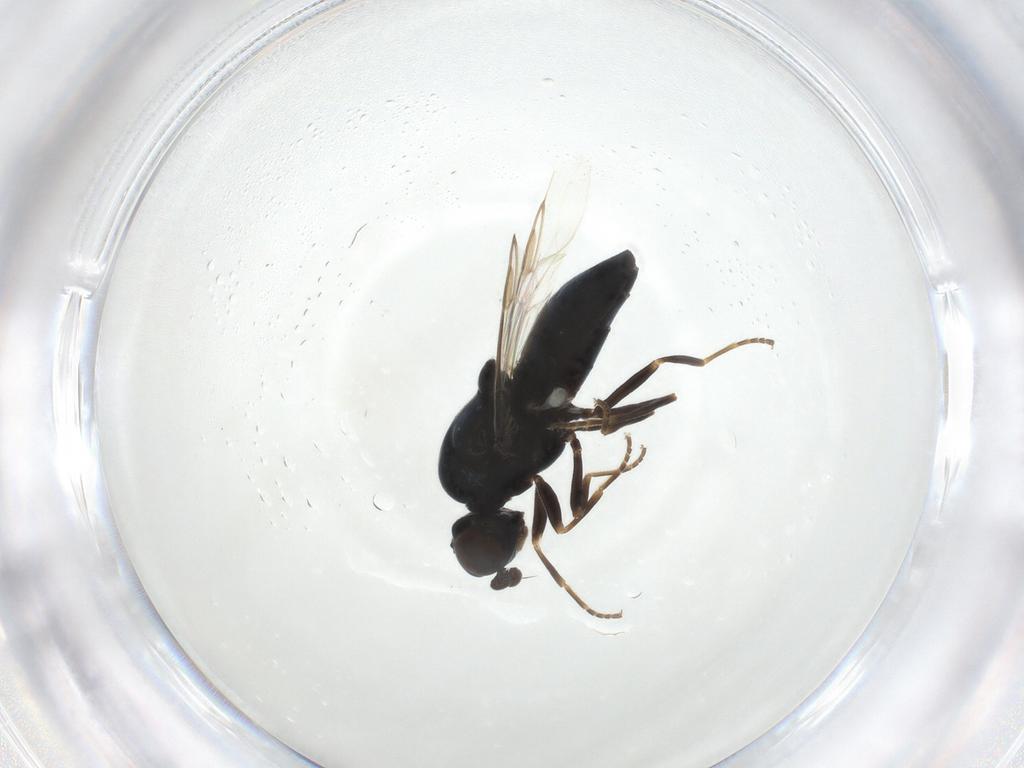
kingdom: Animalia
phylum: Arthropoda
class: Insecta
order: Diptera
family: Stratiomyidae
